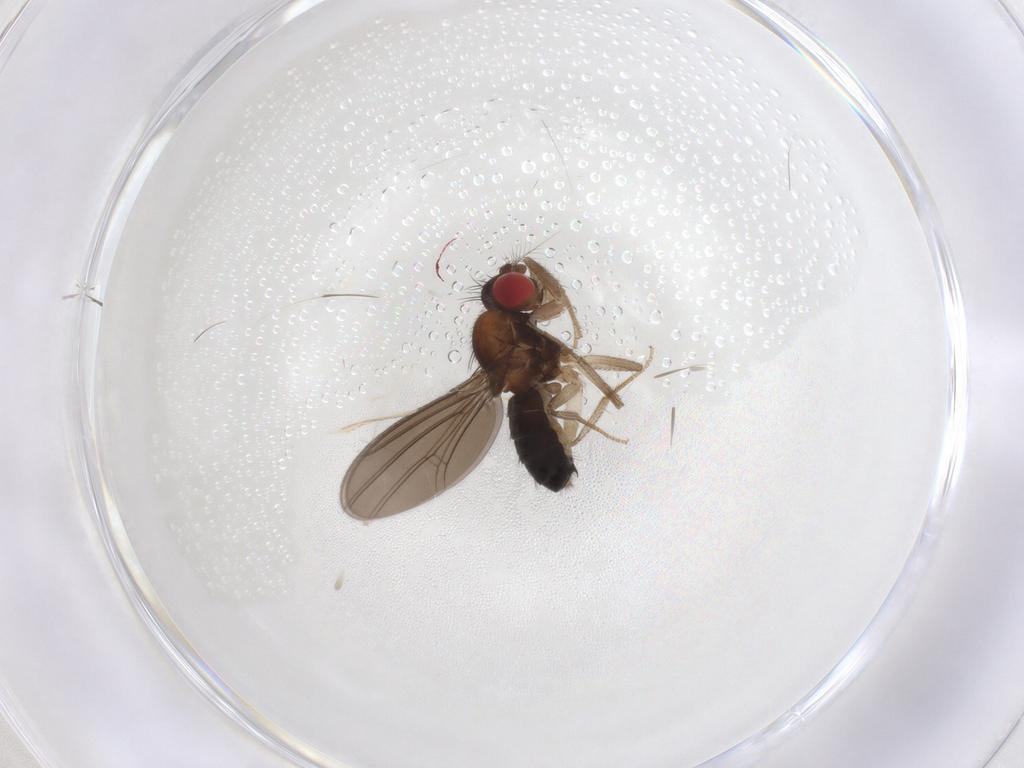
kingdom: Animalia
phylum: Arthropoda
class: Insecta
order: Diptera
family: Drosophilidae
